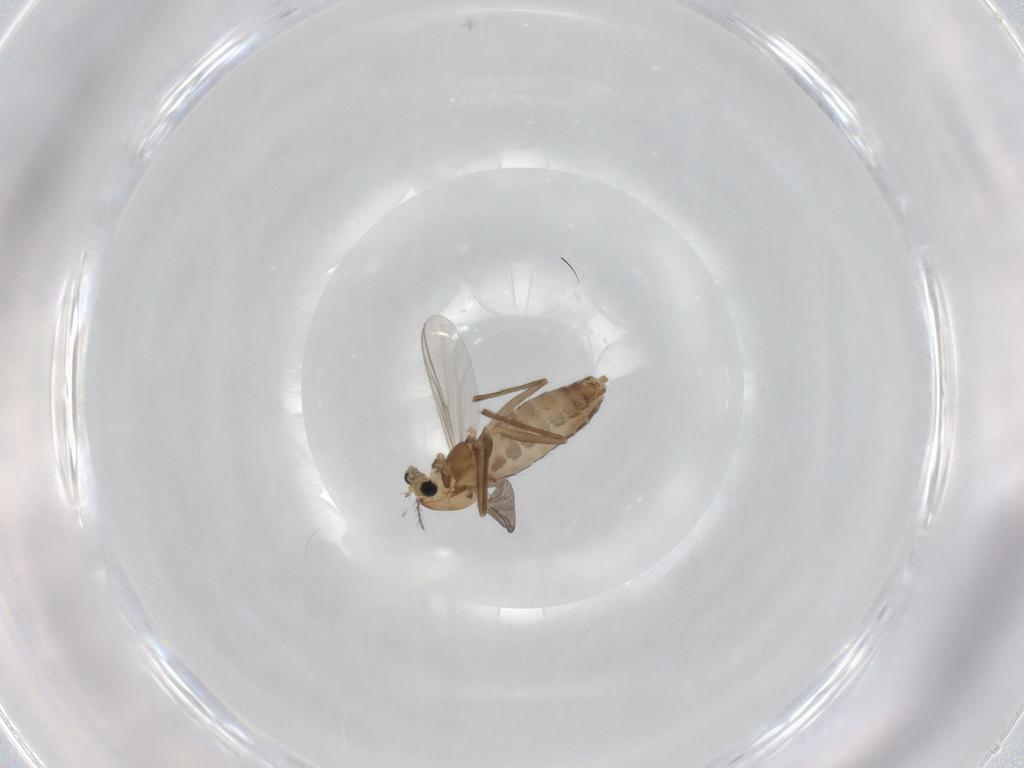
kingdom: Animalia
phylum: Arthropoda
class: Insecta
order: Diptera
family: Chironomidae
